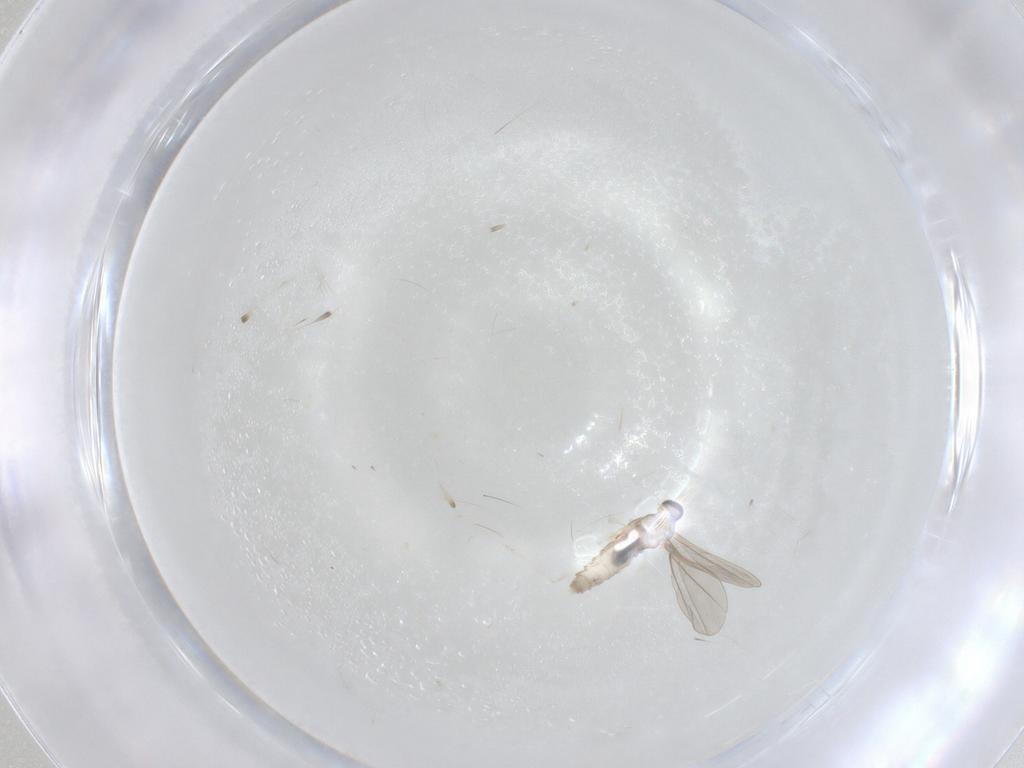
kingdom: Animalia
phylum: Arthropoda
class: Insecta
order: Diptera
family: Cecidomyiidae
